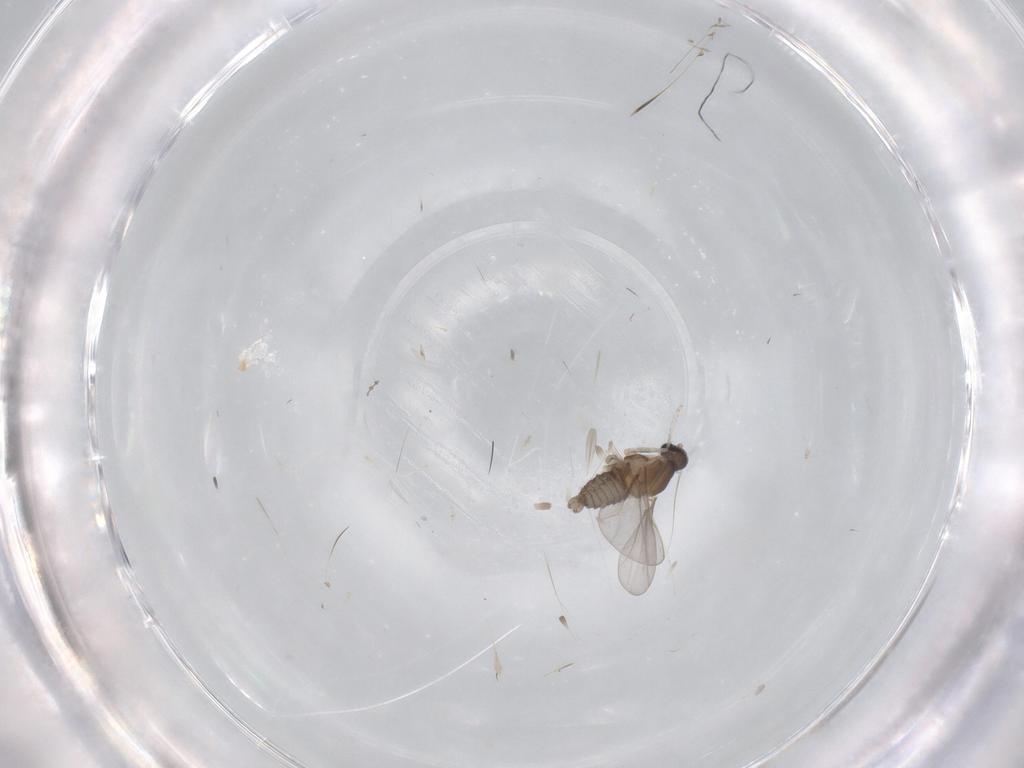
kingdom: Animalia
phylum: Arthropoda
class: Insecta
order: Diptera
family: Cecidomyiidae
